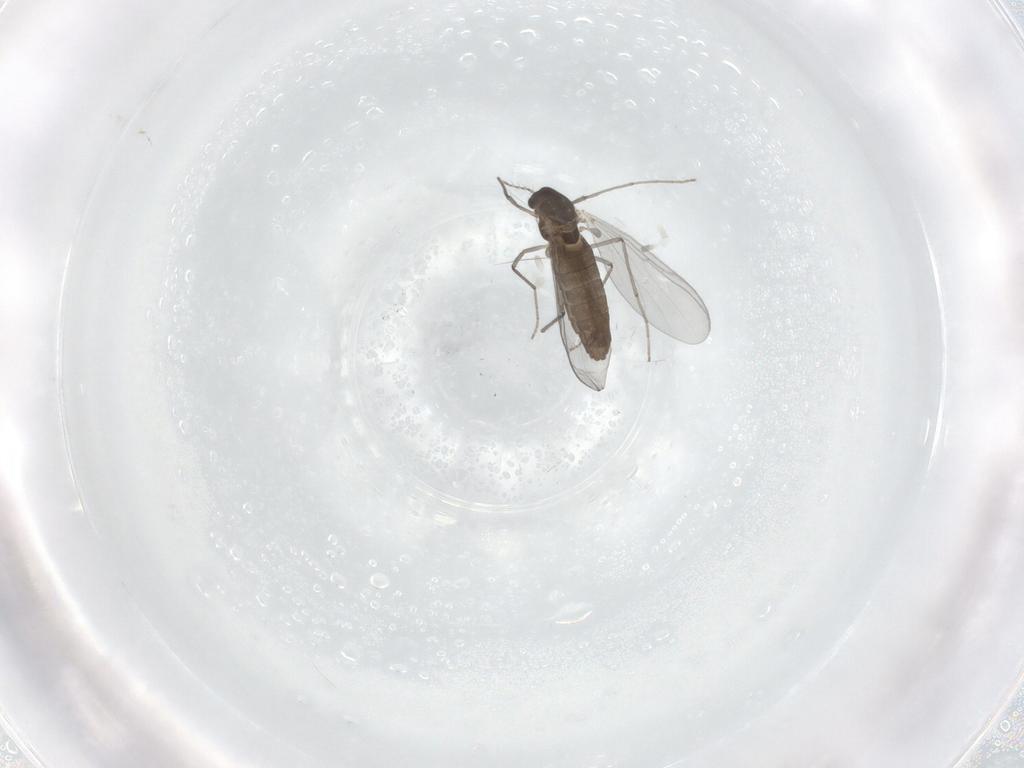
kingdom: Animalia
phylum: Arthropoda
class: Insecta
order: Diptera
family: Chironomidae
